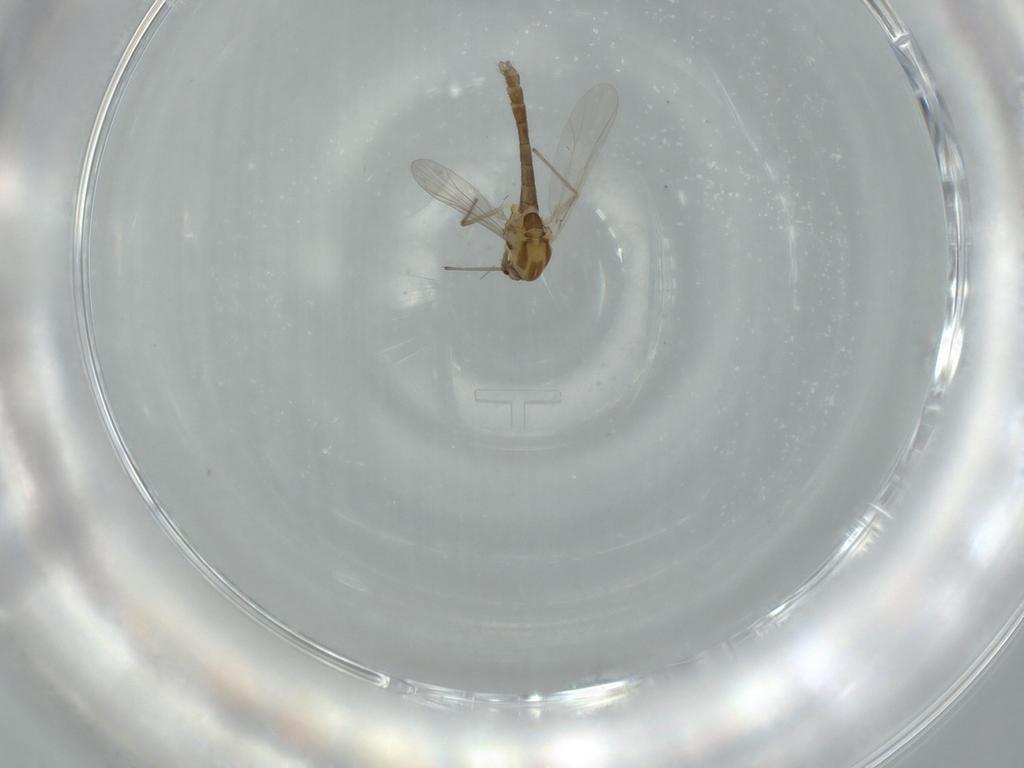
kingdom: Animalia
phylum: Arthropoda
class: Insecta
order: Diptera
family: Chironomidae
